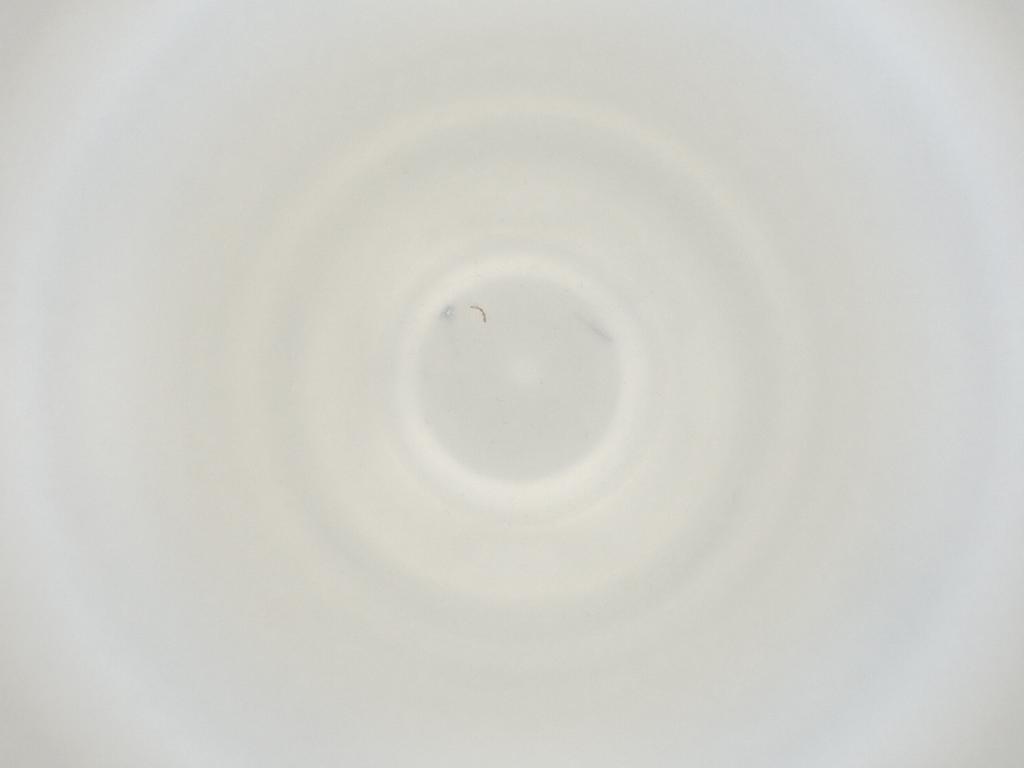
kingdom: Animalia
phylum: Arthropoda
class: Insecta
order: Diptera
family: Cecidomyiidae
